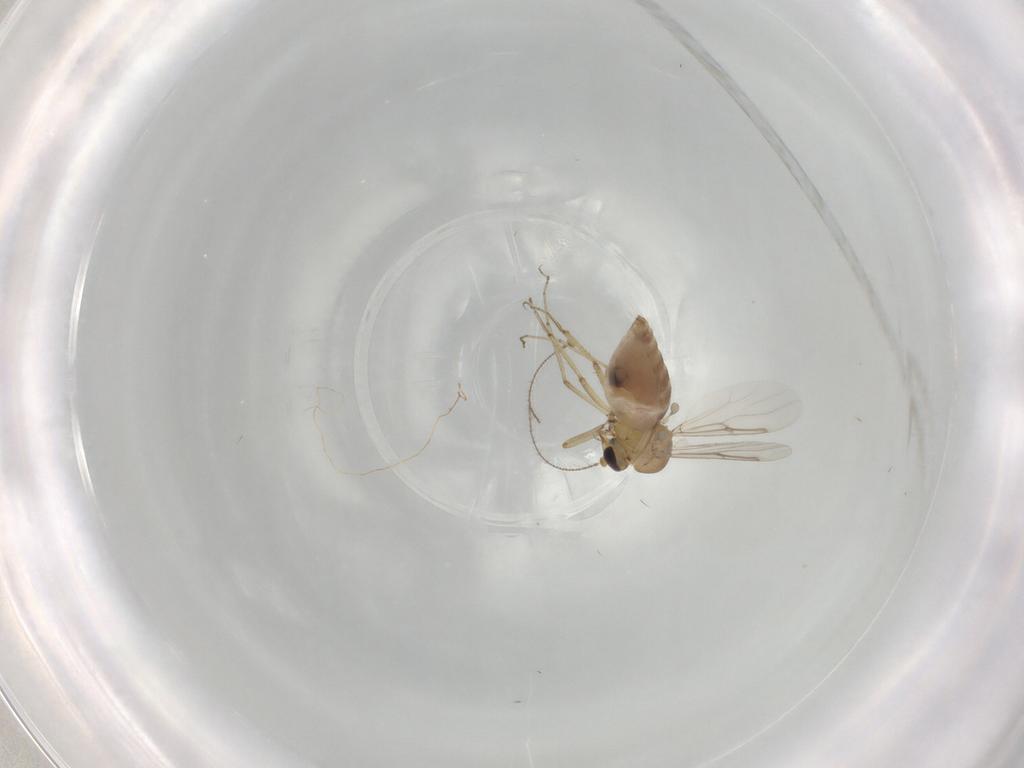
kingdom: Animalia
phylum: Arthropoda
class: Insecta
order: Diptera
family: Ceratopogonidae
